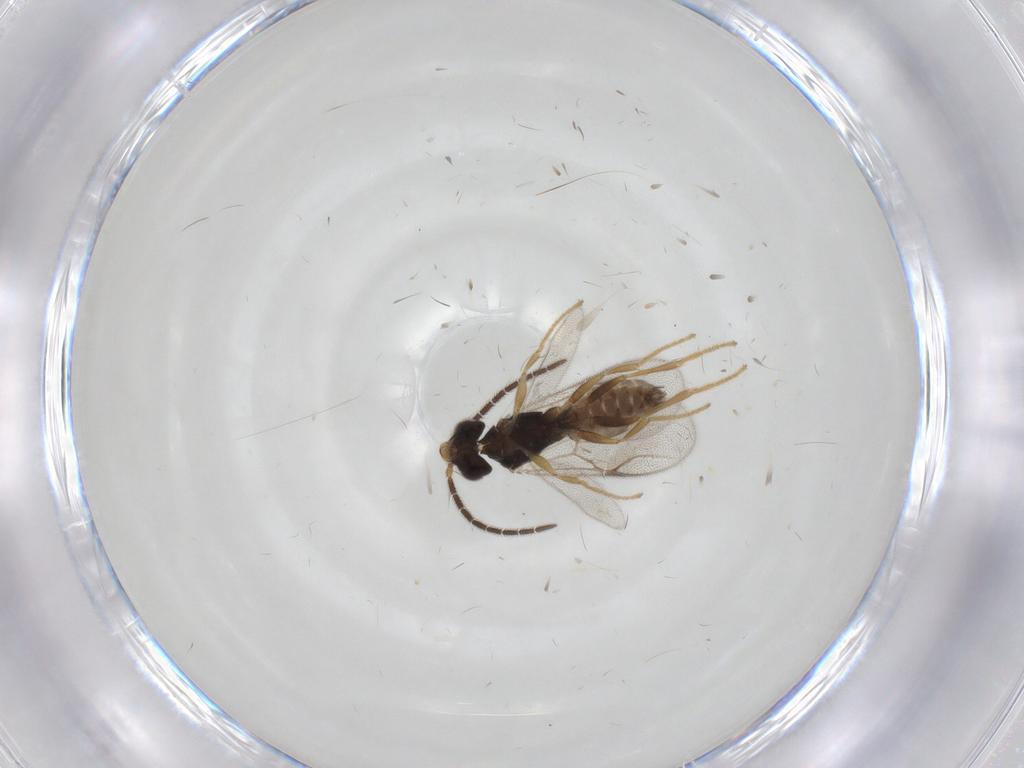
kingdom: Animalia
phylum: Arthropoda
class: Insecta
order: Hymenoptera
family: Dryinidae
